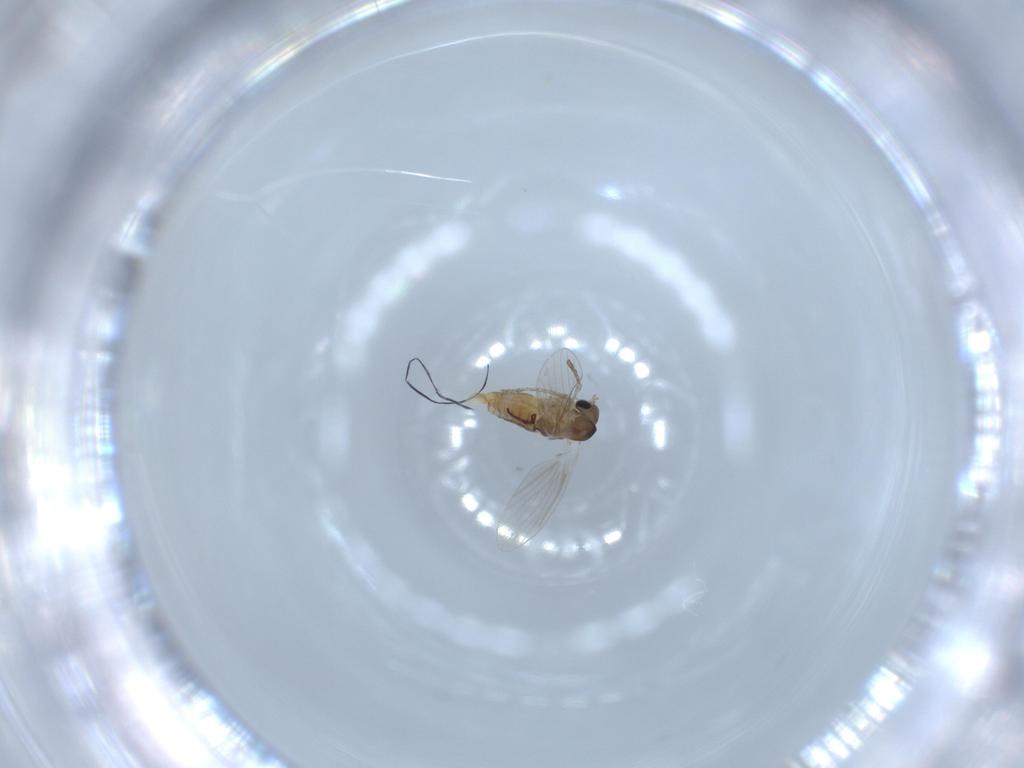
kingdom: Animalia
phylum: Arthropoda
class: Insecta
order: Diptera
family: Psychodidae
